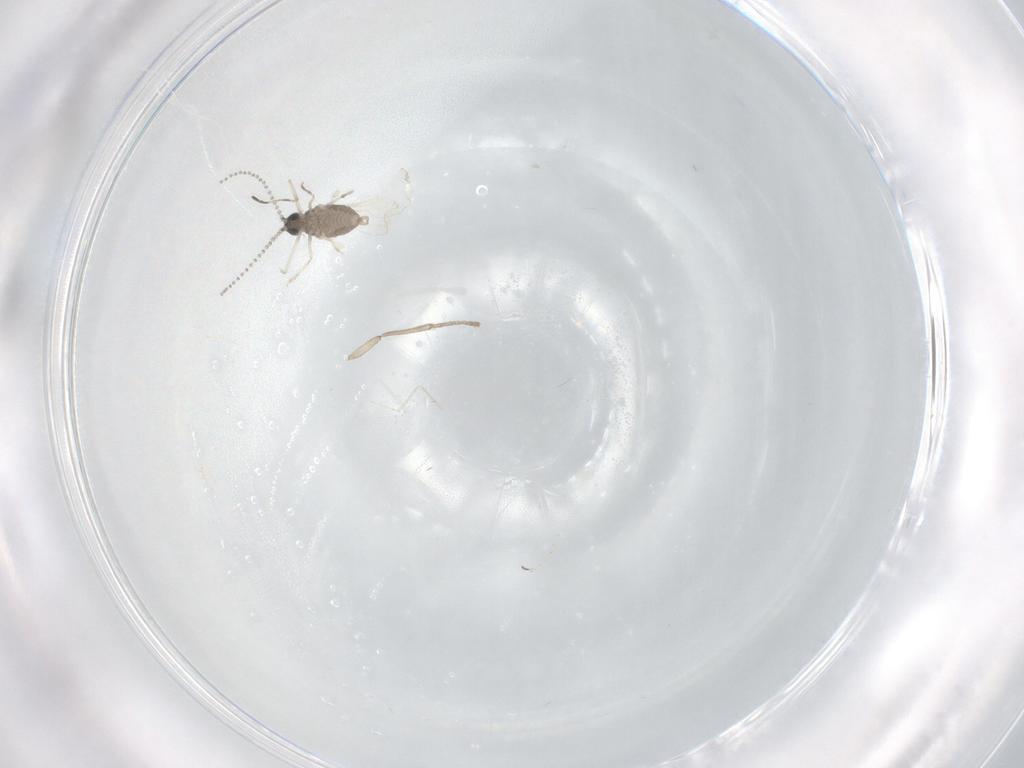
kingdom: Animalia
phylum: Arthropoda
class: Insecta
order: Diptera
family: Cecidomyiidae
